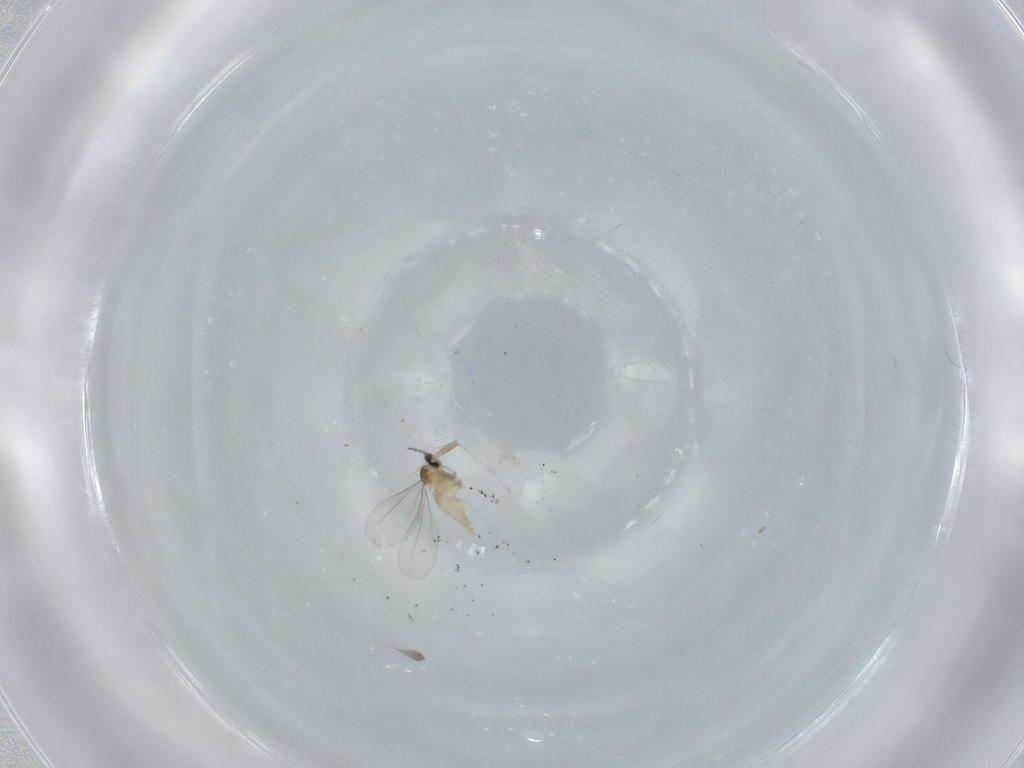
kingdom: Animalia
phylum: Arthropoda
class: Insecta
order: Diptera
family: Cecidomyiidae
